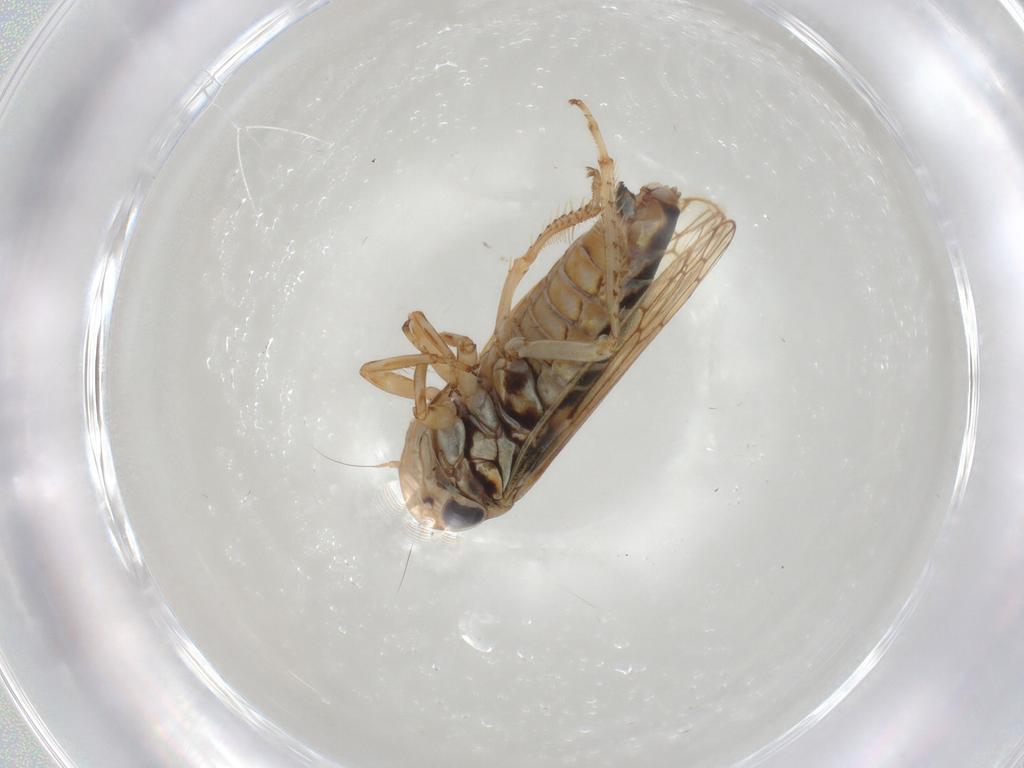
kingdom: Animalia
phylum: Arthropoda
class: Insecta
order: Hemiptera
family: Cicadellidae
